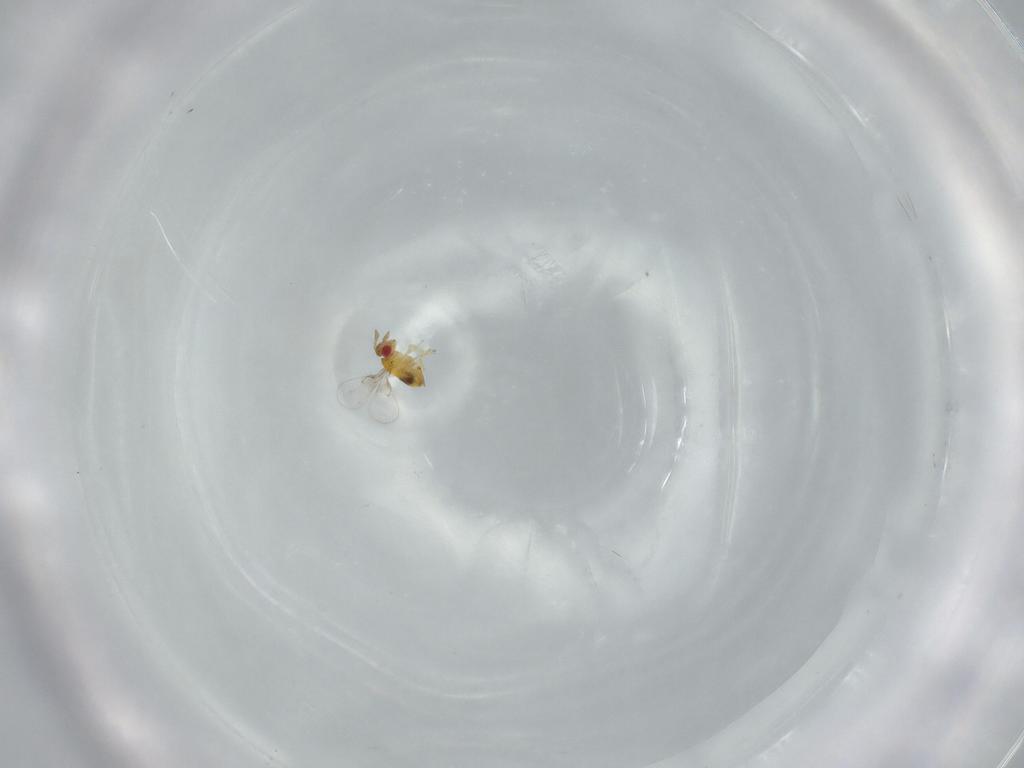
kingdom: Animalia
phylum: Arthropoda
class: Insecta
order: Hymenoptera
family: Trichogrammatidae
